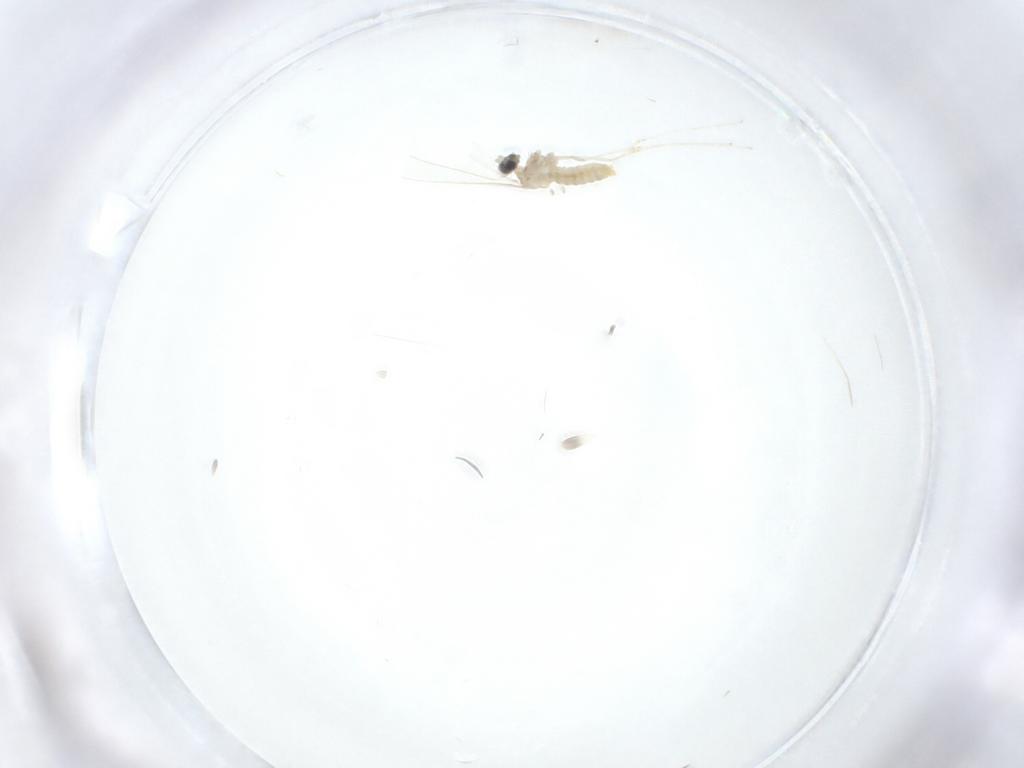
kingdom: Animalia
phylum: Arthropoda
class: Insecta
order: Diptera
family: Cecidomyiidae
